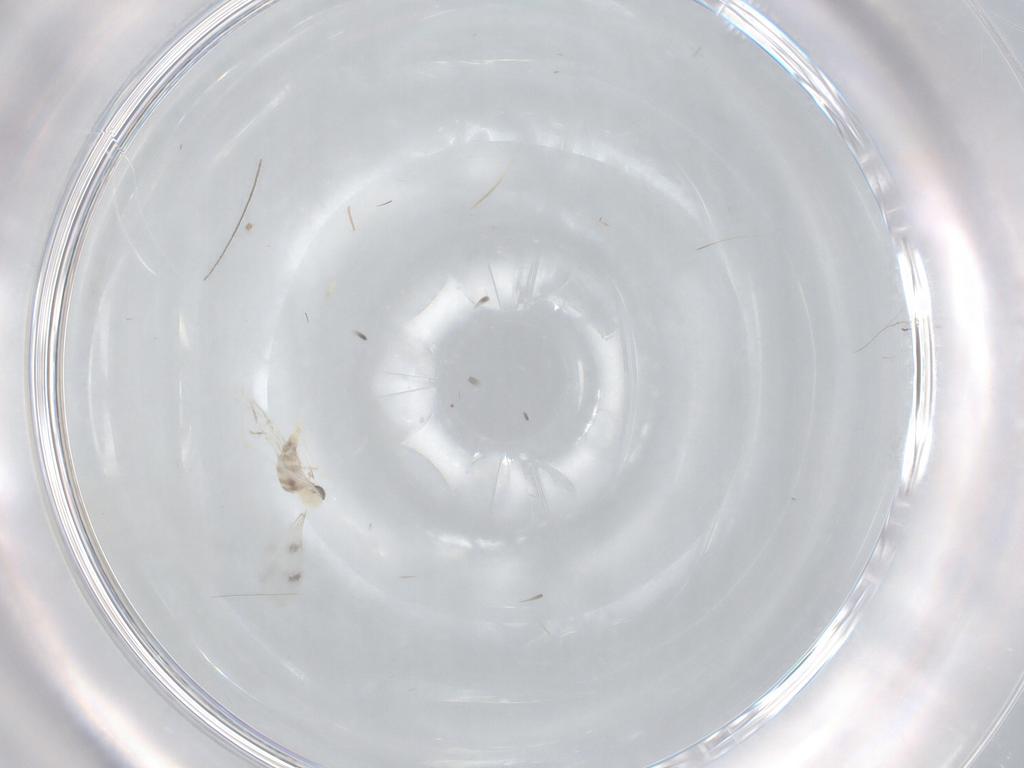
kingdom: Animalia
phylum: Arthropoda
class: Insecta
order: Diptera
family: Cecidomyiidae
